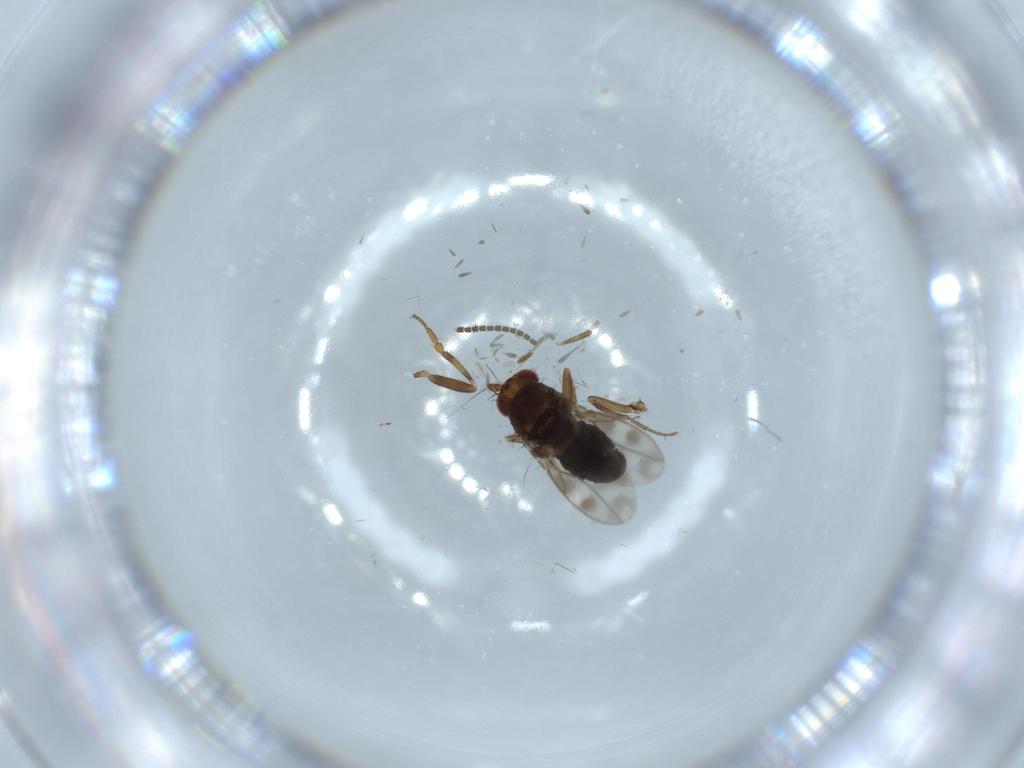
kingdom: Animalia
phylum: Arthropoda
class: Insecta
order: Diptera
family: Sphaeroceridae
